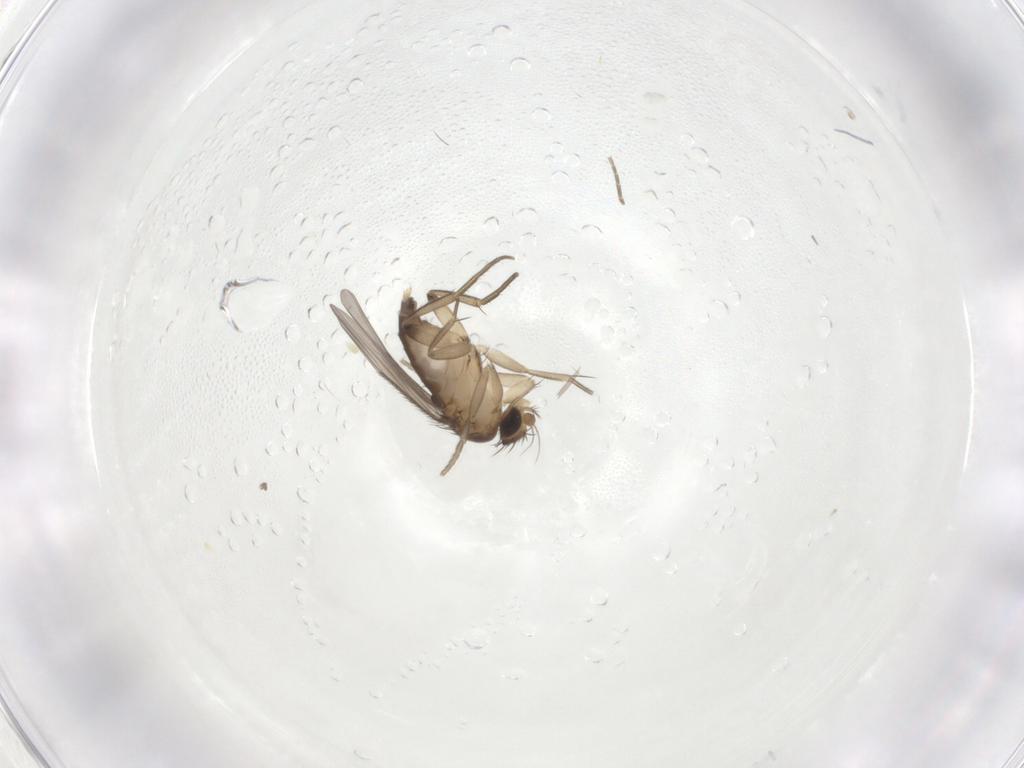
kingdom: Animalia
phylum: Arthropoda
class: Insecta
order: Diptera
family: Phoridae
